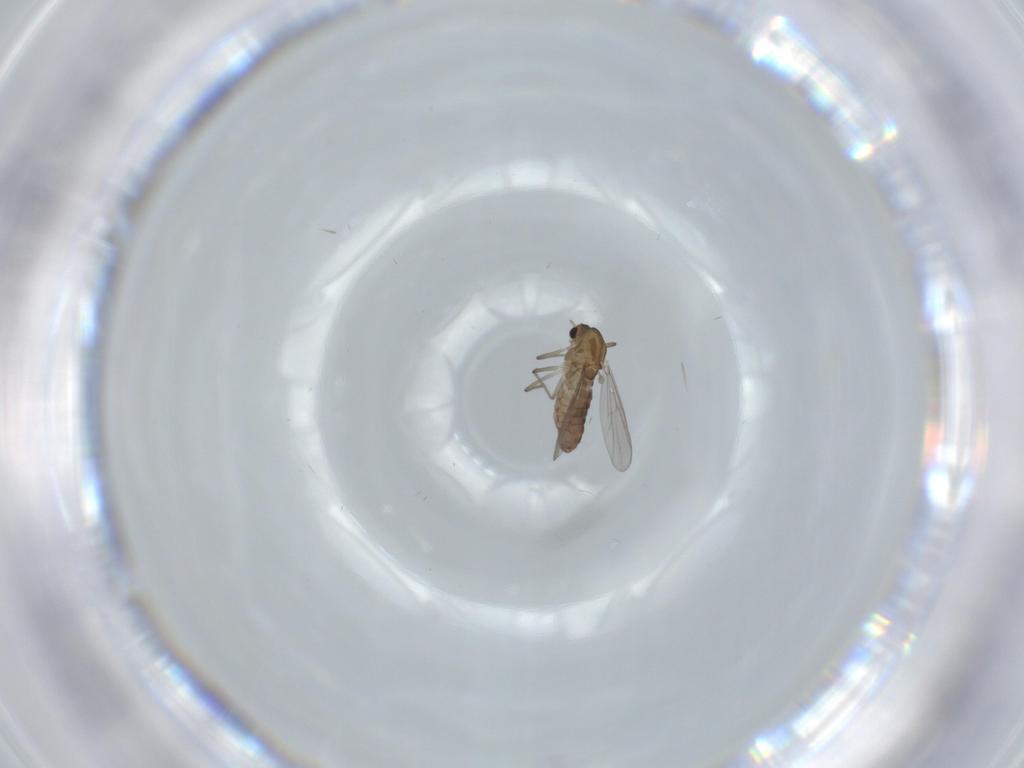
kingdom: Animalia
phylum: Arthropoda
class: Insecta
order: Diptera
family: Chironomidae
